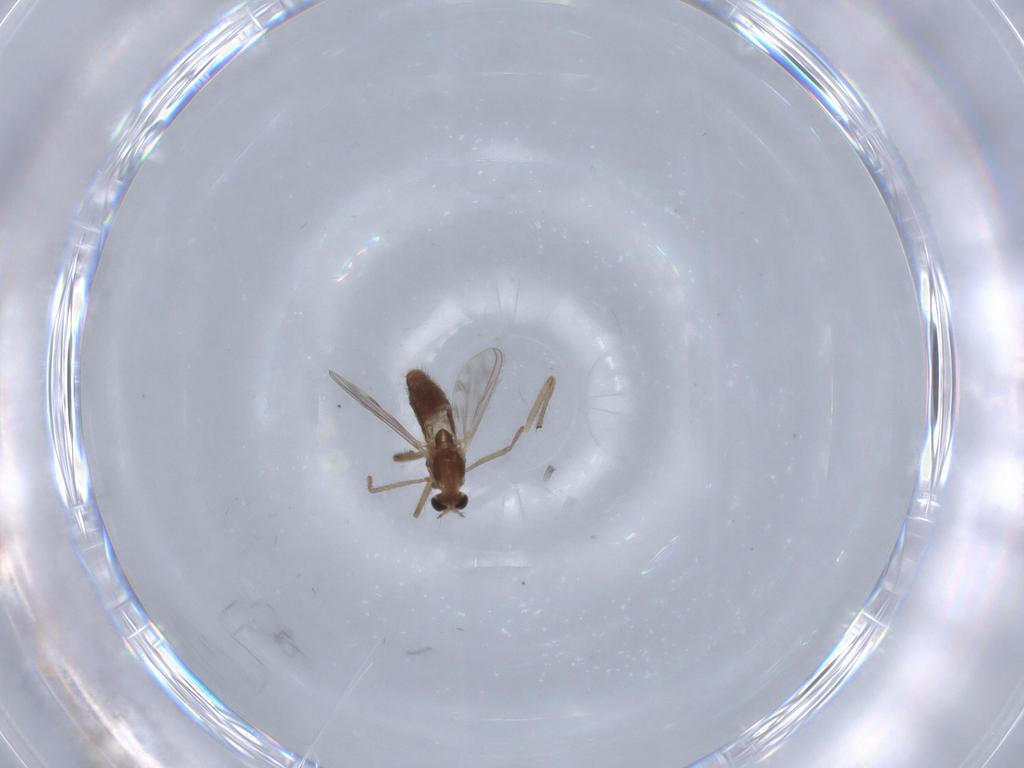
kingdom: Animalia
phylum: Arthropoda
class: Insecta
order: Diptera
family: Chironomidae
